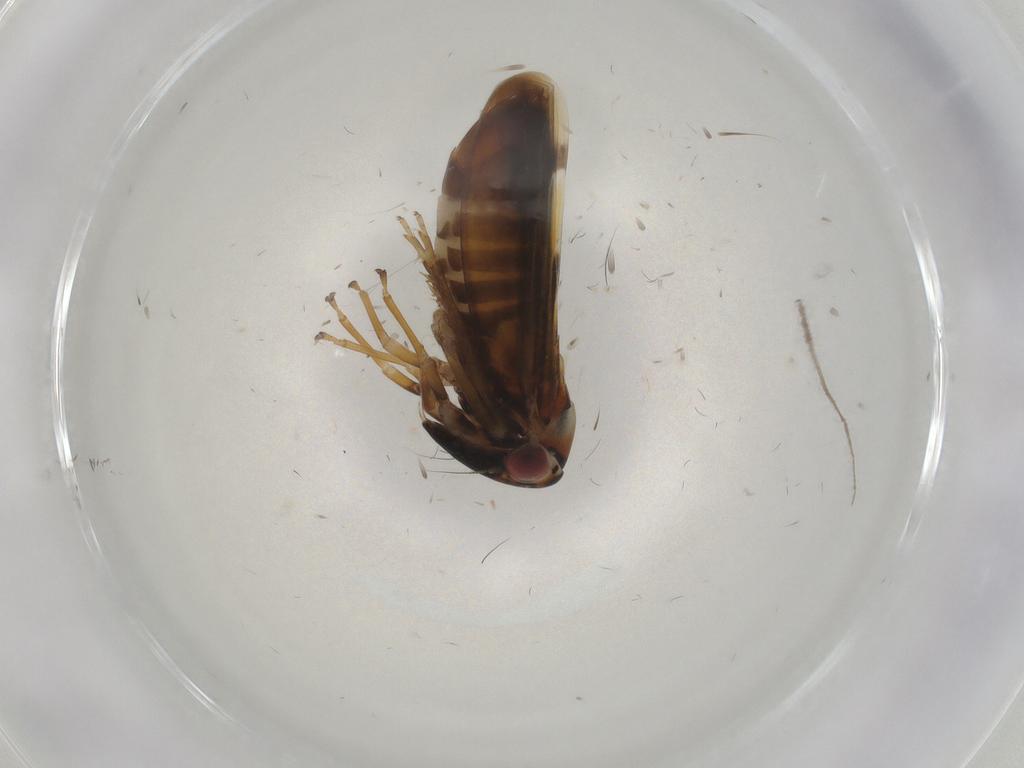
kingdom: Animalia
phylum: Arthropoda
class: Insecta
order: Hemiptera
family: Cicadellidae
